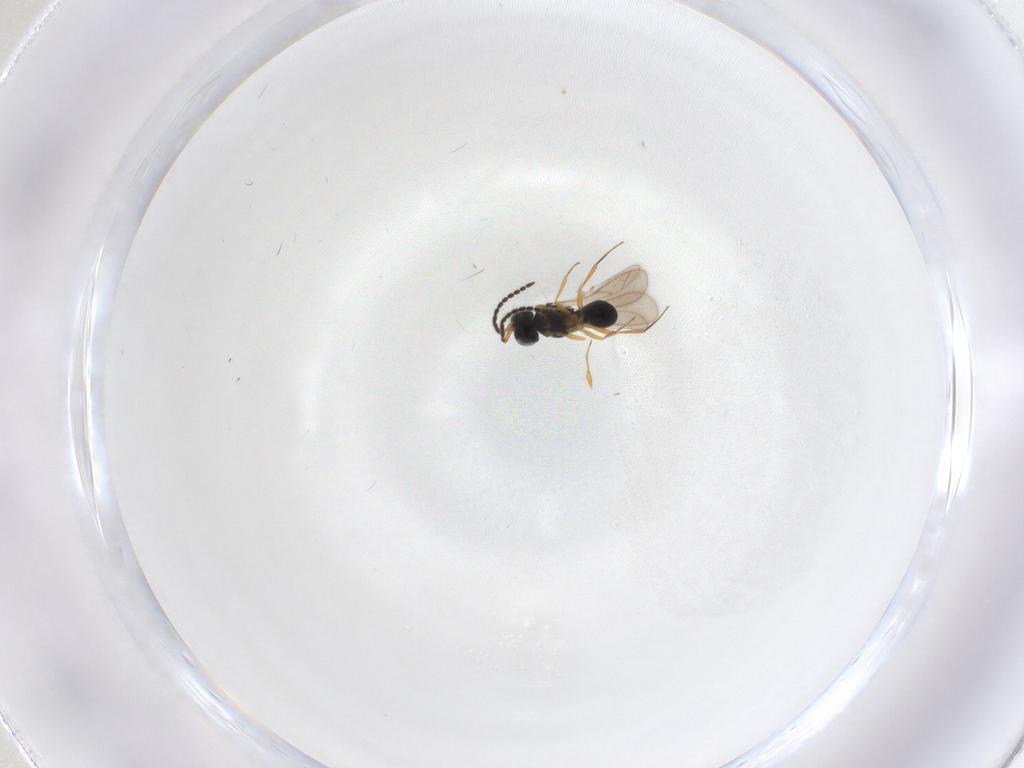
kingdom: Animalia
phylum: Arthropoda
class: Insecta
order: Hymenoptera
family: Scelionidae
